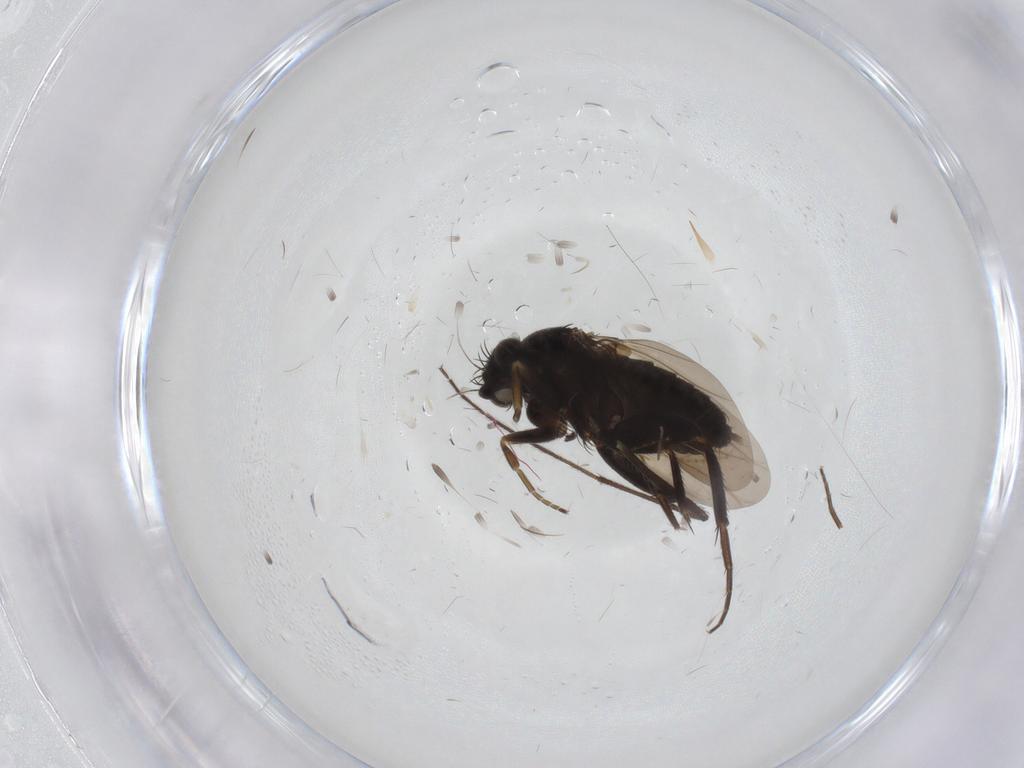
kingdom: Animalia
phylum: Arthropoda
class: Insecta
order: Diptera
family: Phoridae
